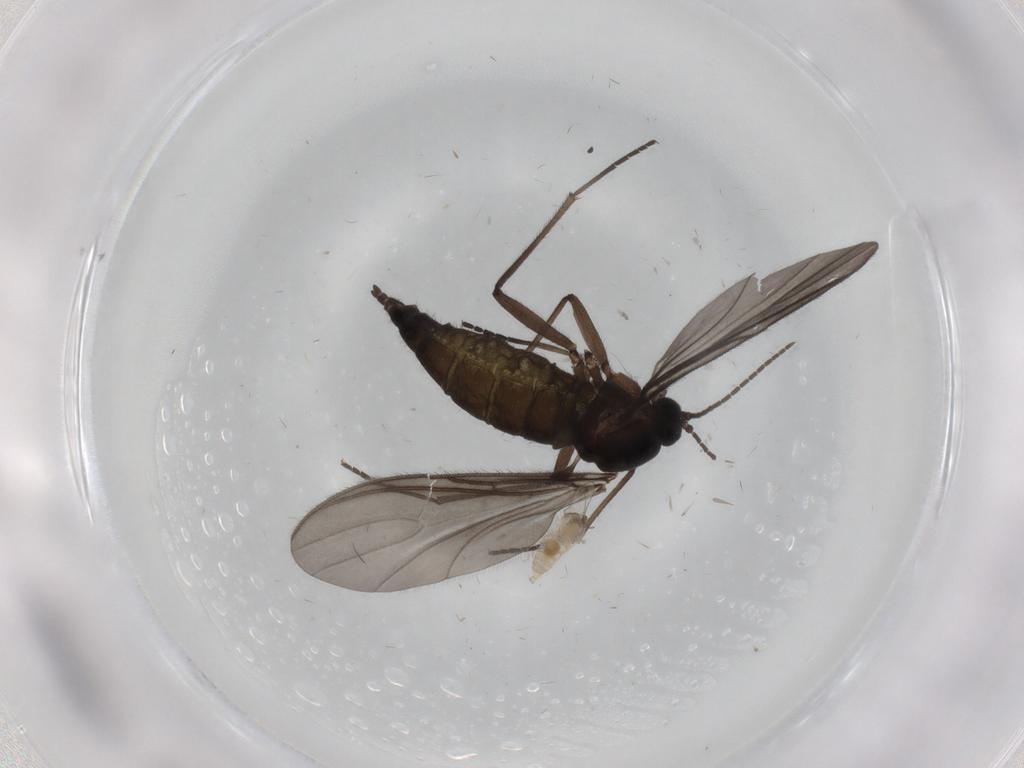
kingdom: Animalia
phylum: Arthropoda
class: Insecta
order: Diptera
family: Cecidomyiidae
